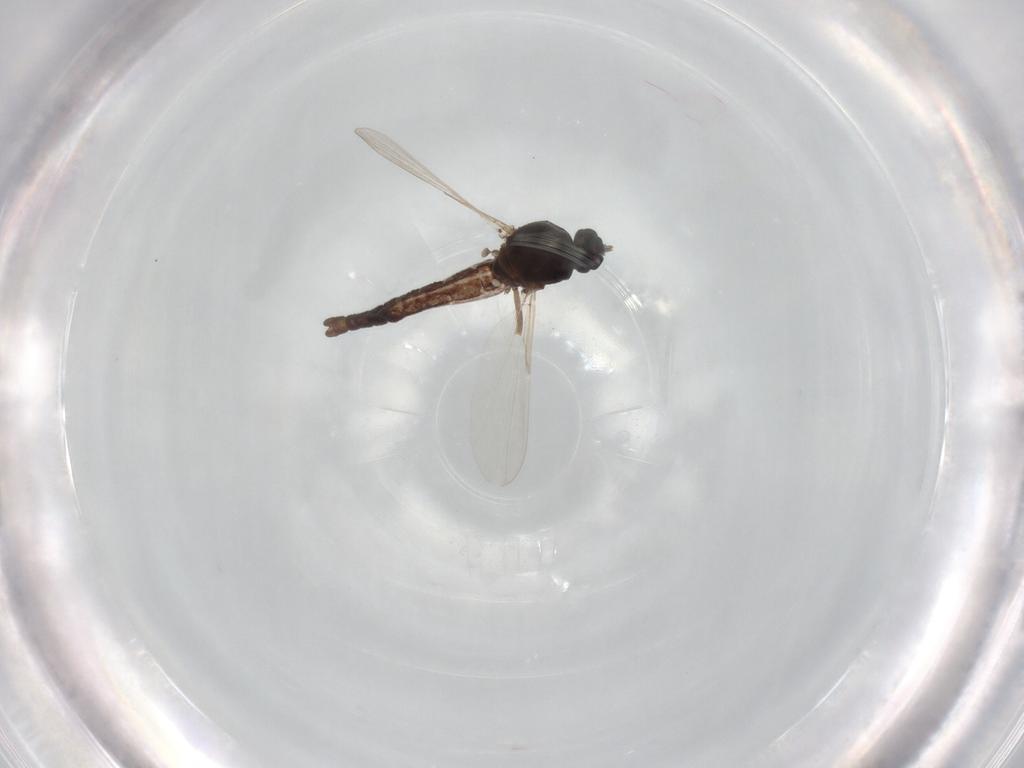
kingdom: Animalia
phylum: Arthropoda
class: Insecta
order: Diptera
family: Ceratopogonidae
